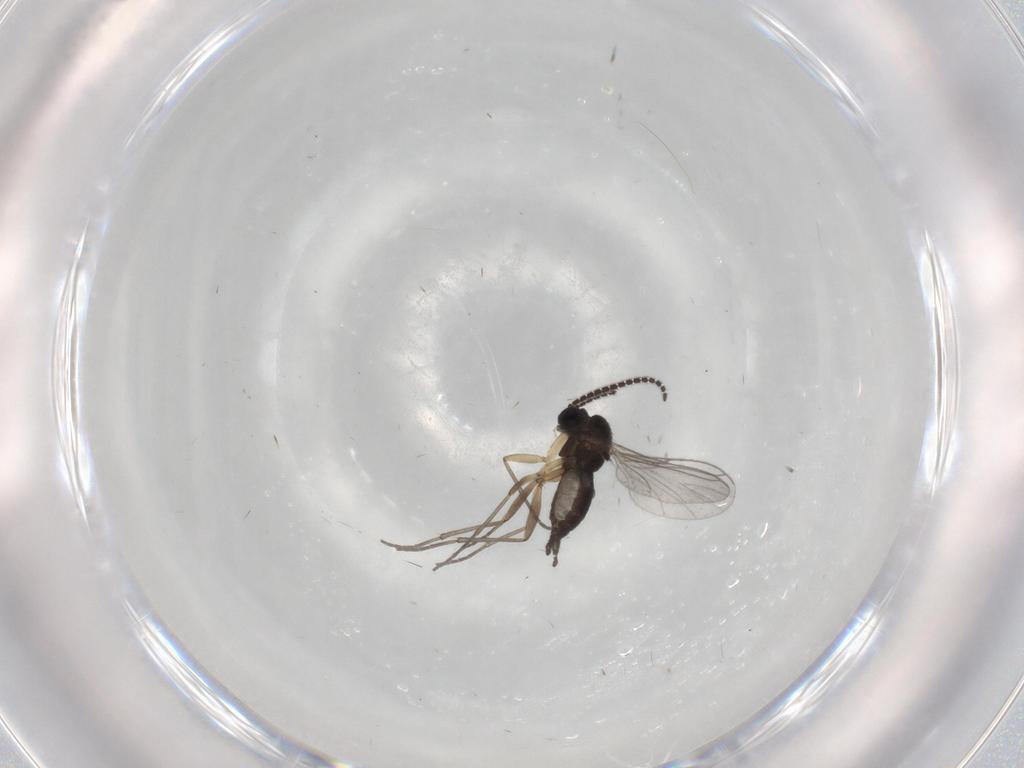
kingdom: Animalia
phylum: Arthropoda
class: Insecta
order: Diptera
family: Sciaridae
